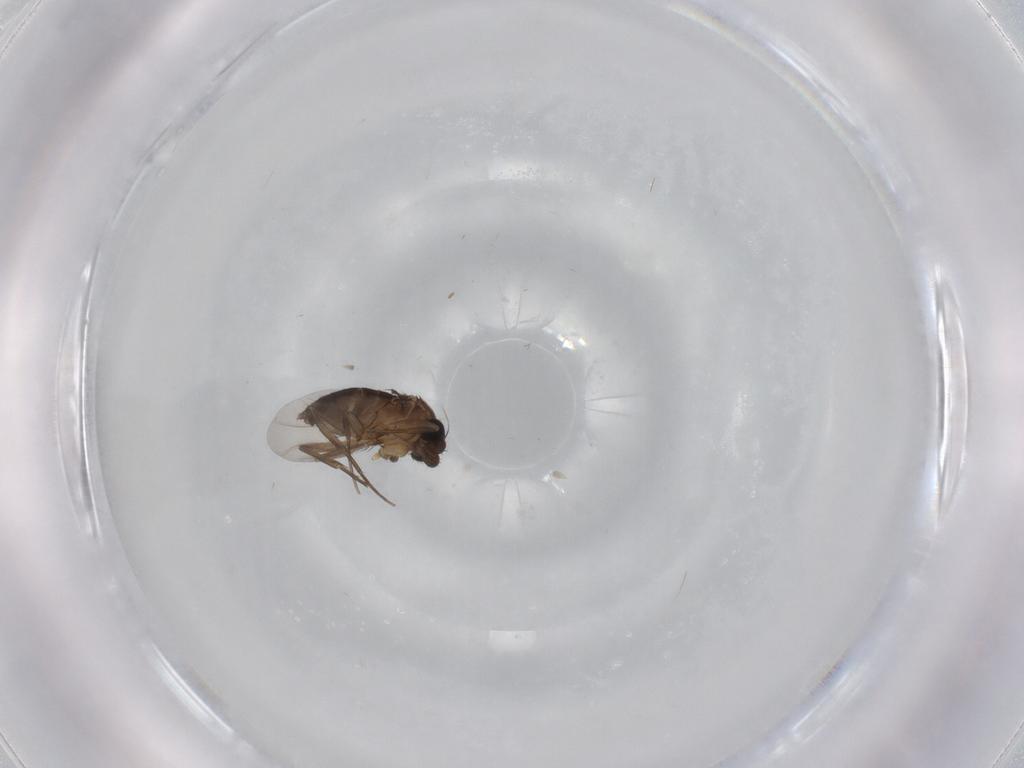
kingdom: Animalia
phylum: Arthropoda
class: Insecta
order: Diptera
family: Phoridae
